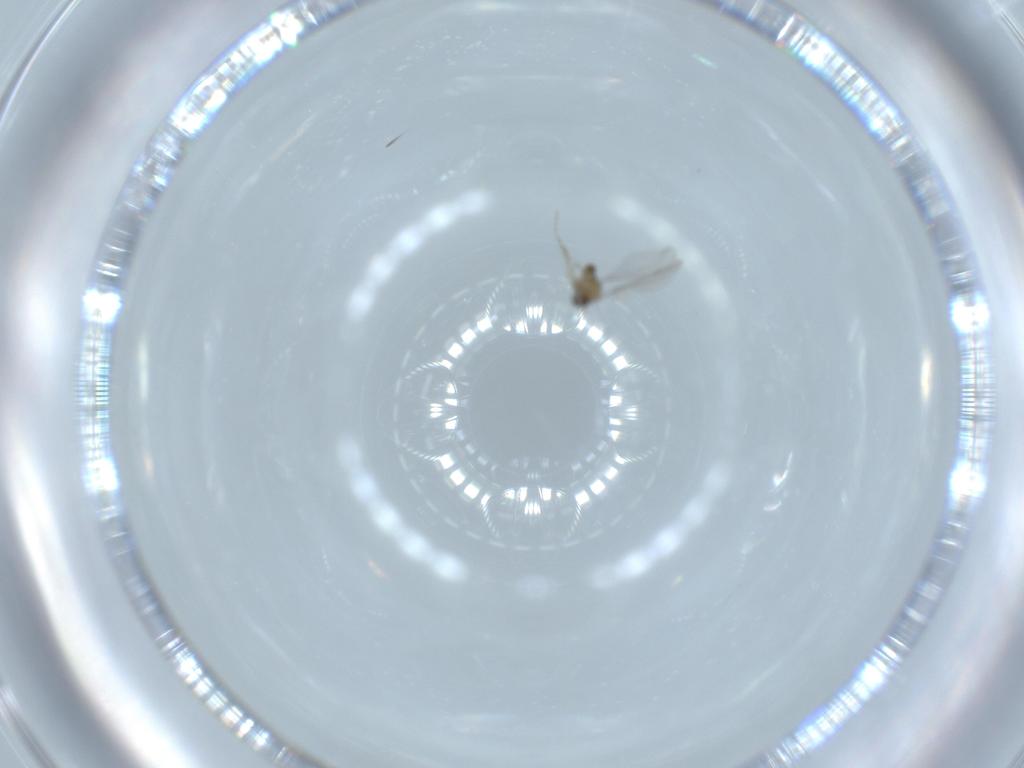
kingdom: Animalia
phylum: Arthropoda
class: Insecta
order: Diptera
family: Cecidomyiidae
